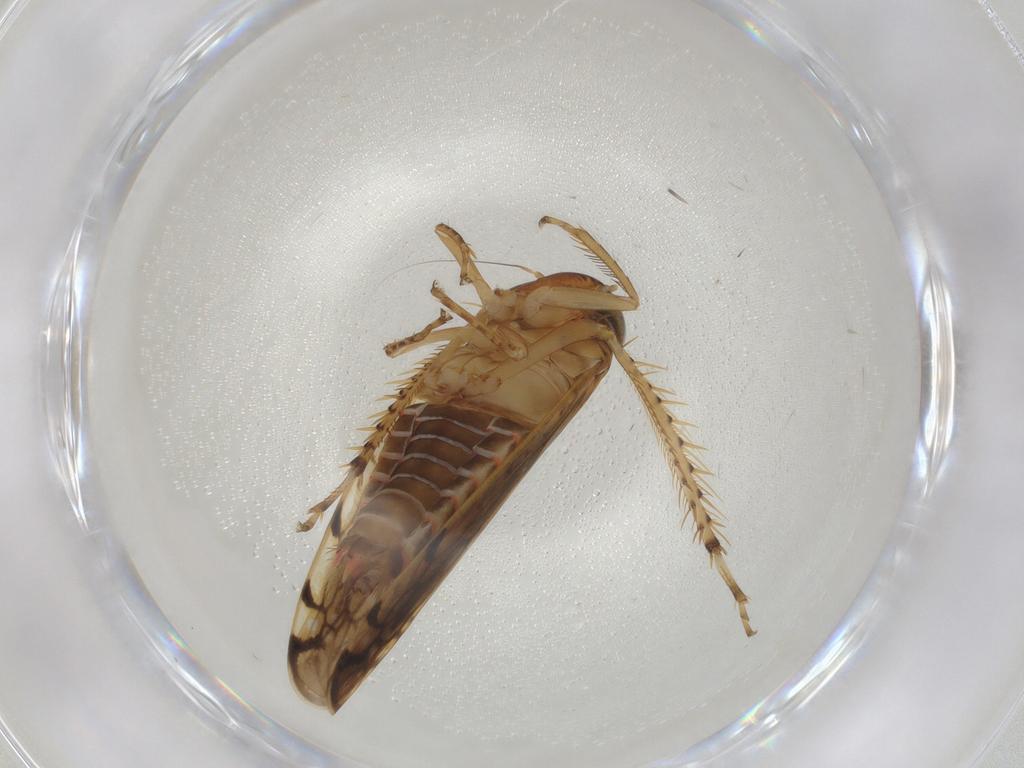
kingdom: Animalia
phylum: Arthropoda
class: Insecta
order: Hemiptera
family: Cicadellidae
